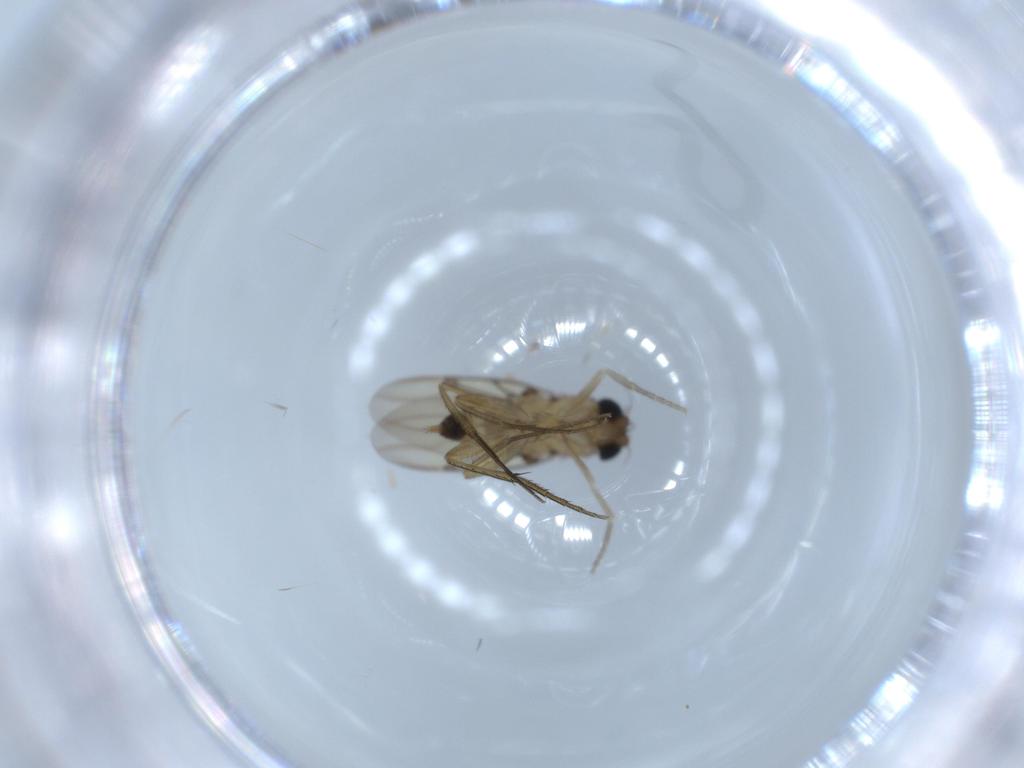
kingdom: Animalia
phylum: Arthropoda
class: Insecta
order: Diptera
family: Phoridae
